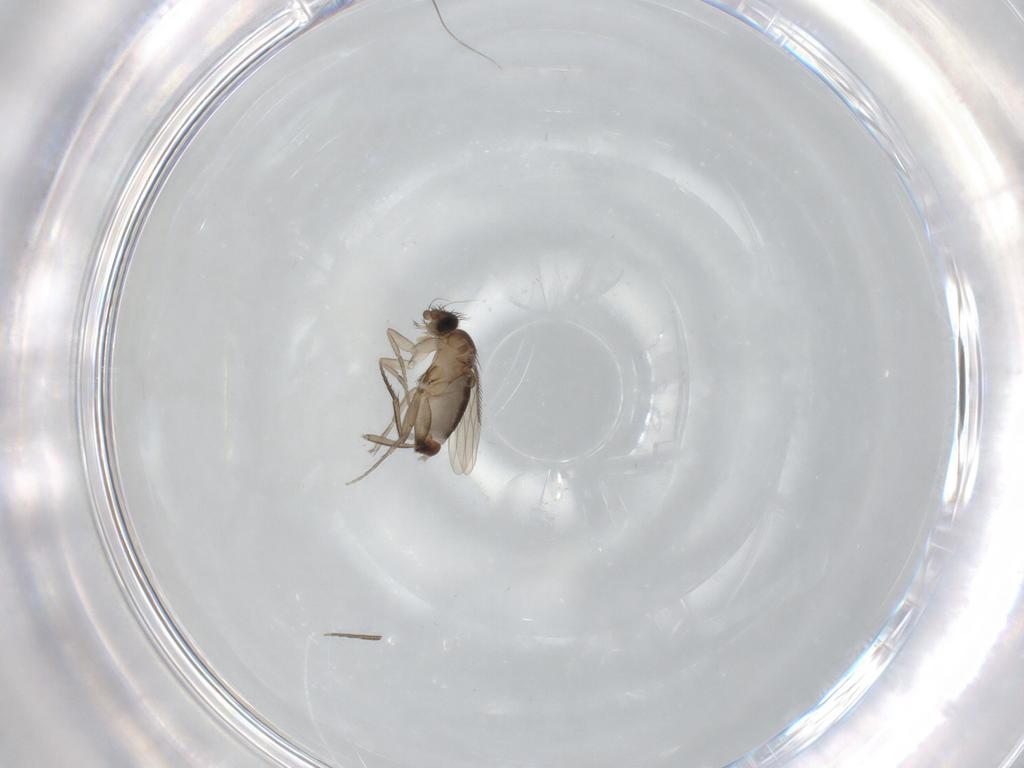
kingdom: Animalia
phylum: Arthropoda
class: Insecta
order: Diptera
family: Phoridae
